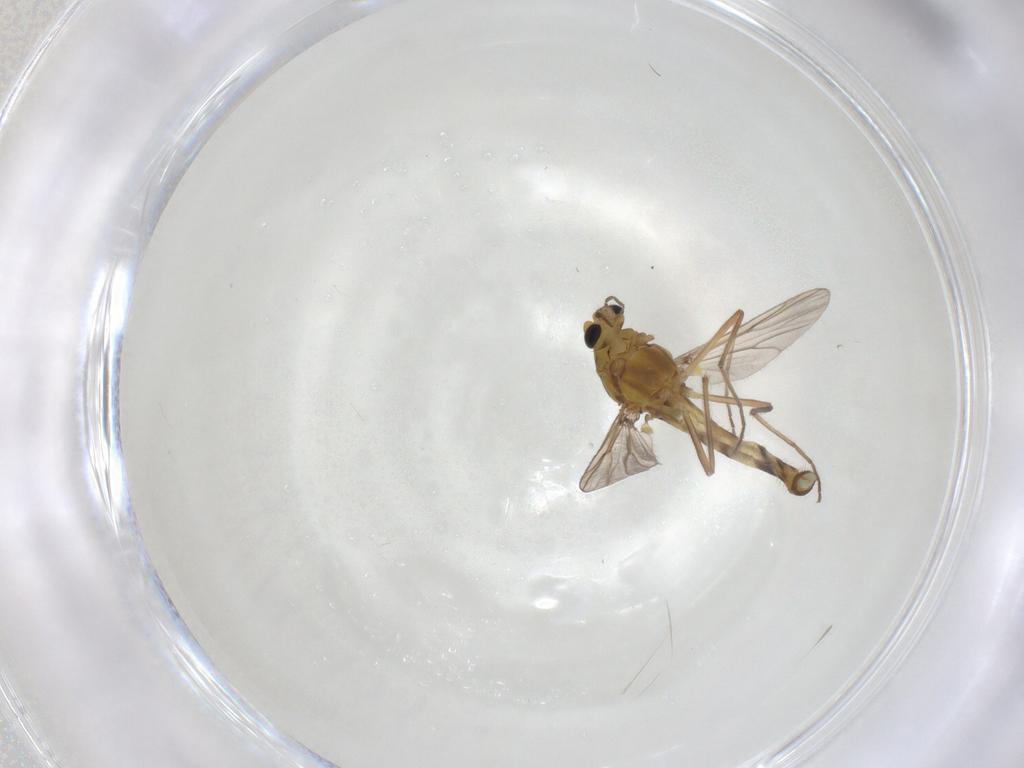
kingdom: Animalia
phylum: Arthropoda
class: Insecta
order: Diptera
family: Chironomidae
